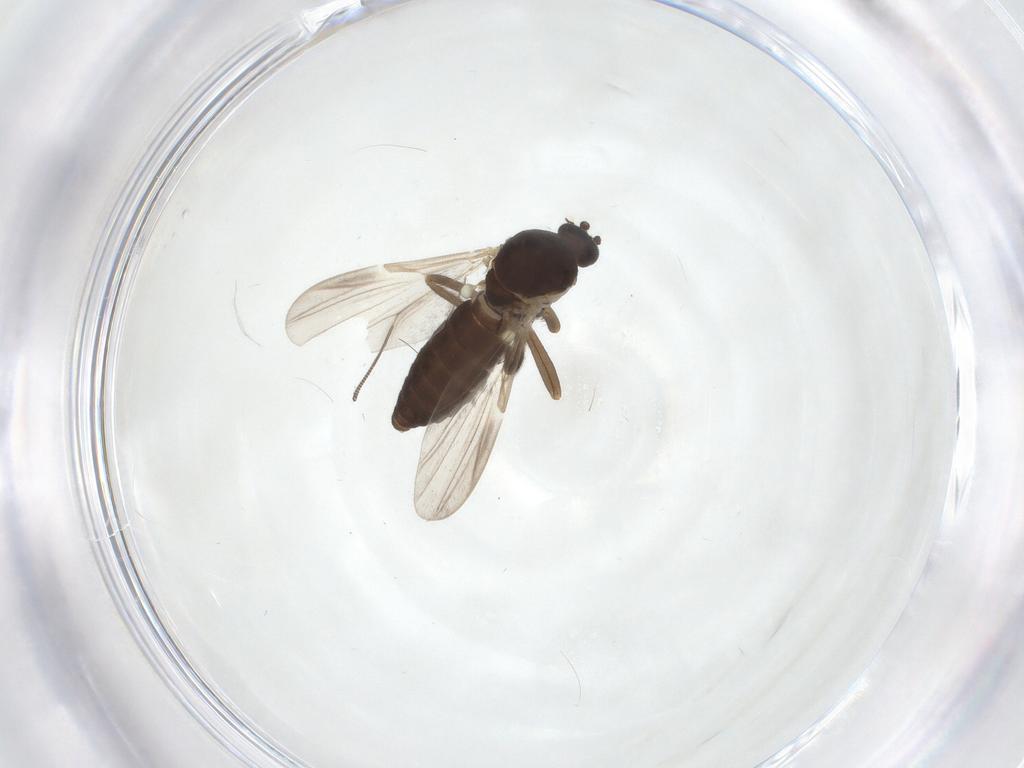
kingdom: Animalia
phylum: Arthropoda
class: Insecta
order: Diptera
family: Ceratopogonidae
